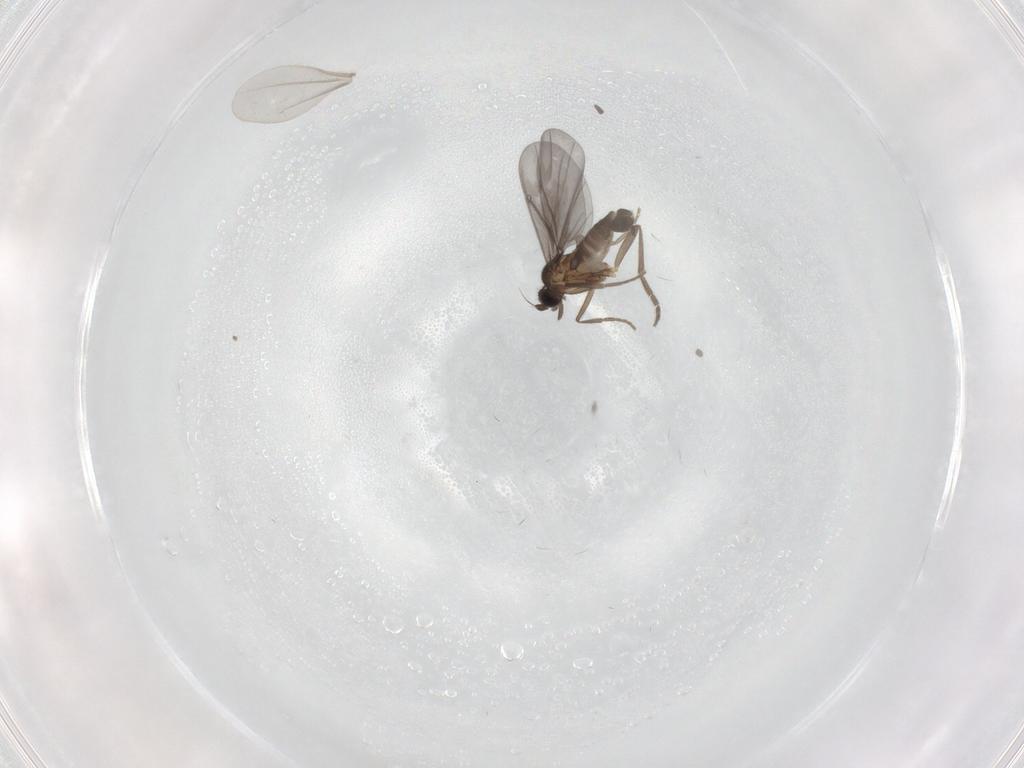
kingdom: Animalia
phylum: Arthropoda
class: Insecta
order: Diptera
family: Phoridae
